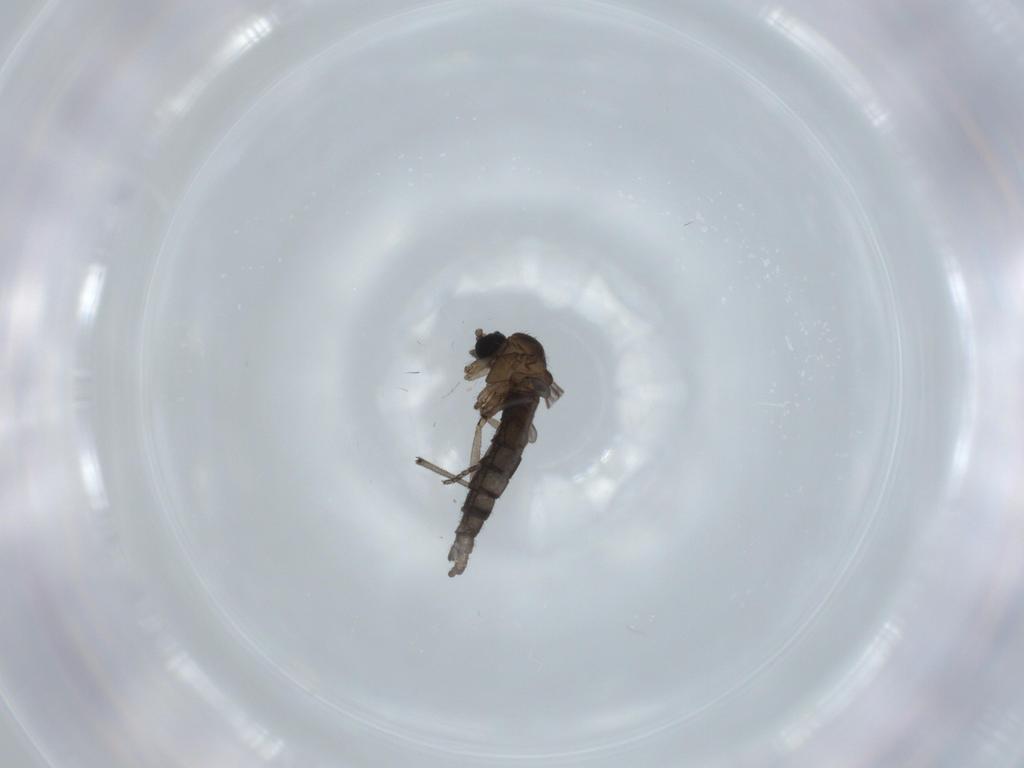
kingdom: Animalia
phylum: Arthropoda
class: Insecta
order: Diptera
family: Sciaridae
